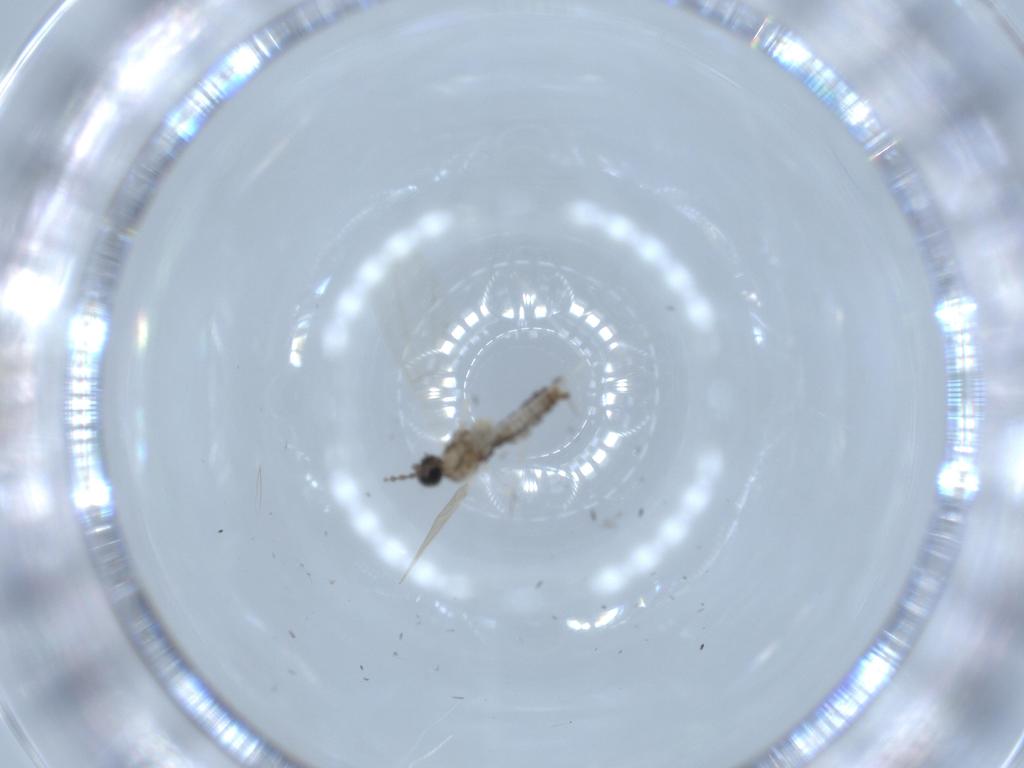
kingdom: Animalia
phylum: Arthropoda
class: Insecta
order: Diptera
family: Cecidomyiidae
